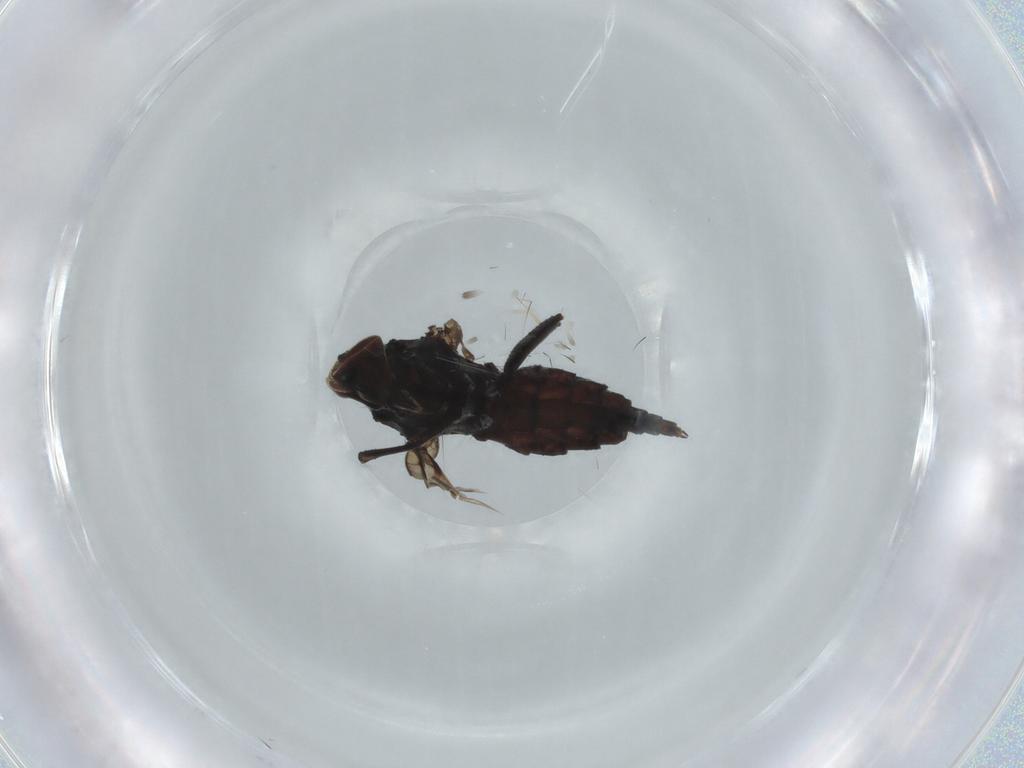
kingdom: Animalia
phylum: Arthropoda
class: Insecta
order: Diptera
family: Hybotidae
